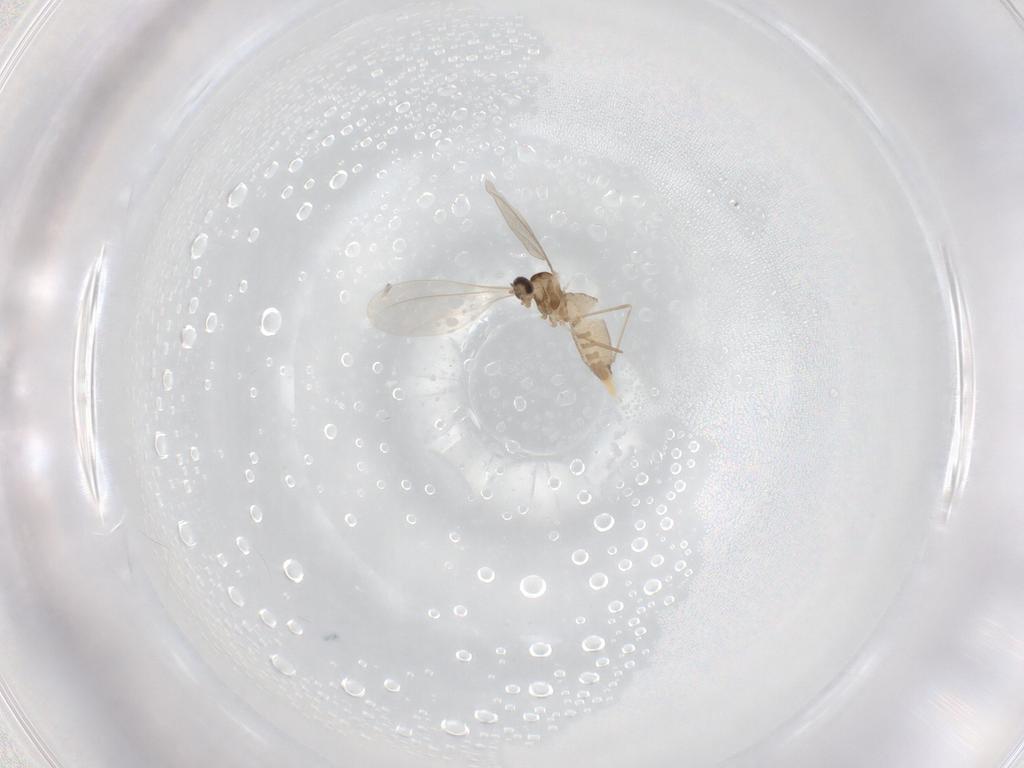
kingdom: Animalia
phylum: Arthropoda
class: Insecta
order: Diptera
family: Cecidomyiidae
